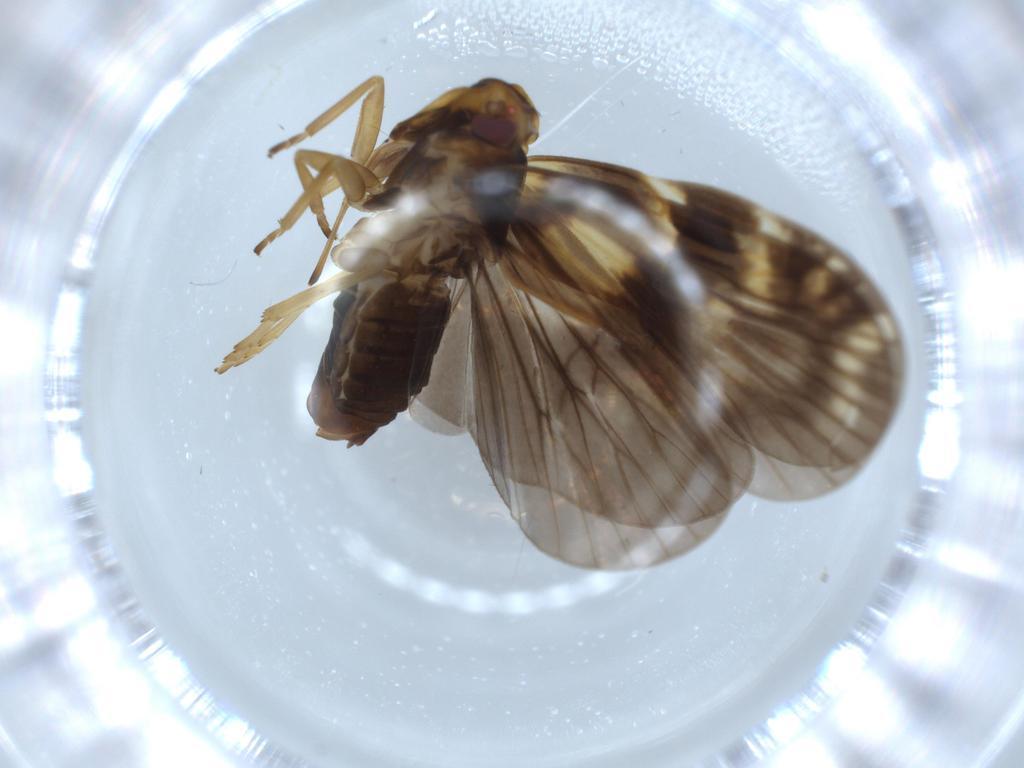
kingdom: Animalia
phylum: Arthropoda
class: Insecta
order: Hemiptera
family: Cixiidae
